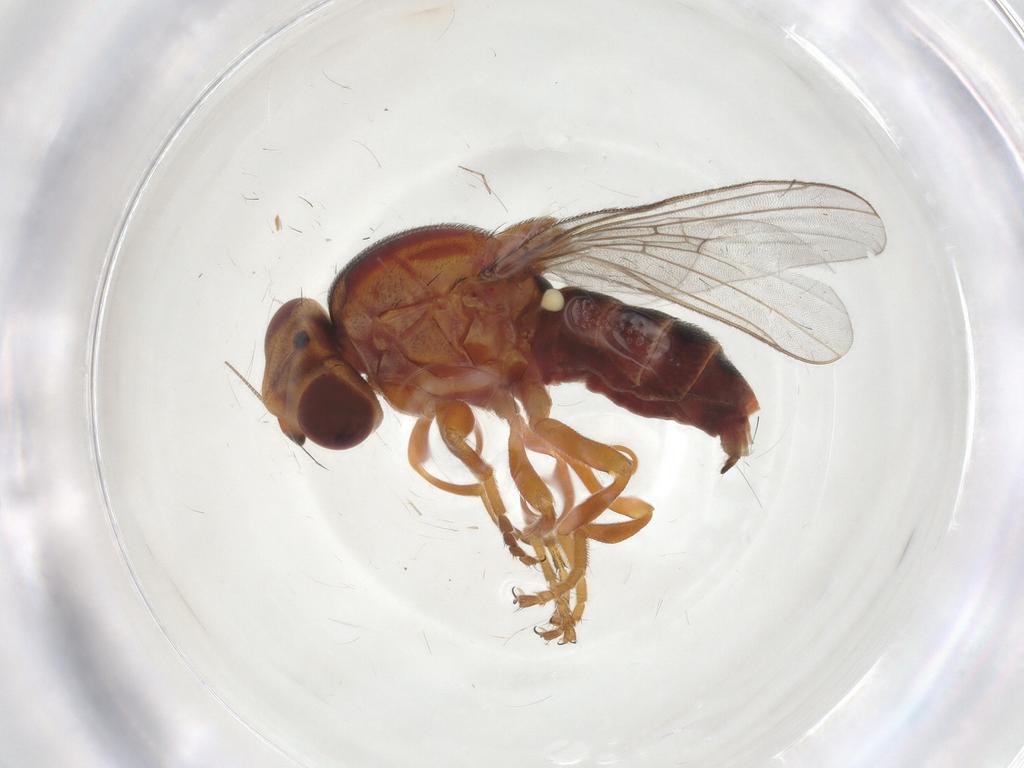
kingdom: Animalia
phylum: Arthropoda
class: Insecta
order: Diptera
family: Chloropidae
